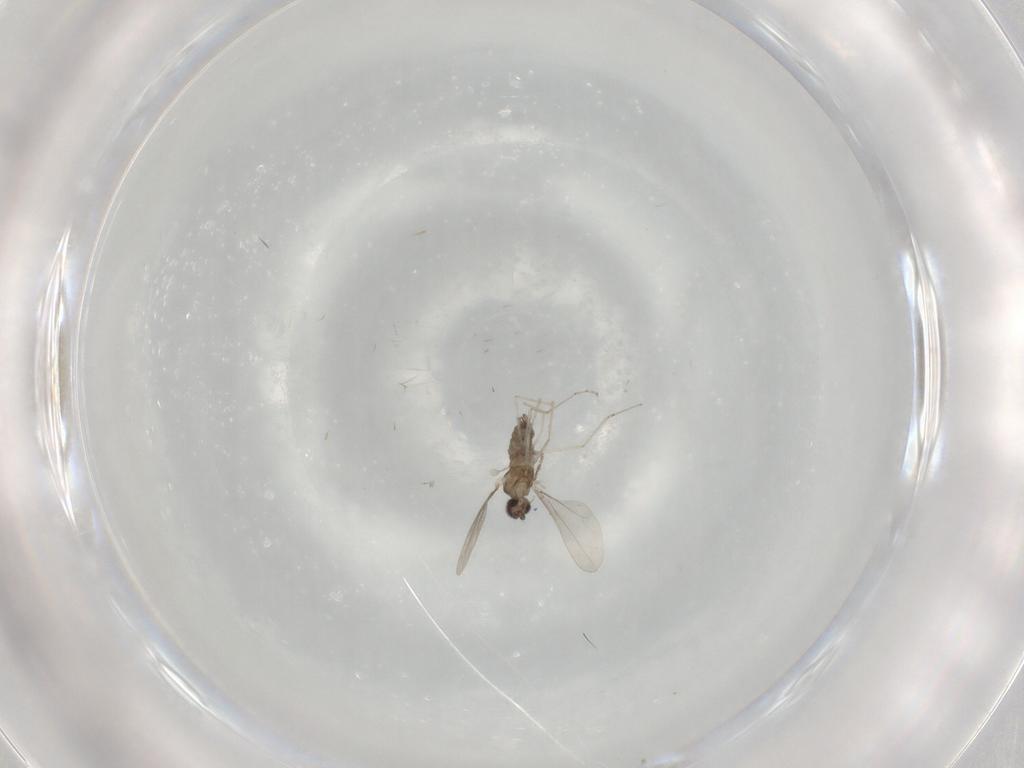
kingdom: Animalia
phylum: Arthropoda
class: Insecta
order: Diptera
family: Cecidomyiidae
